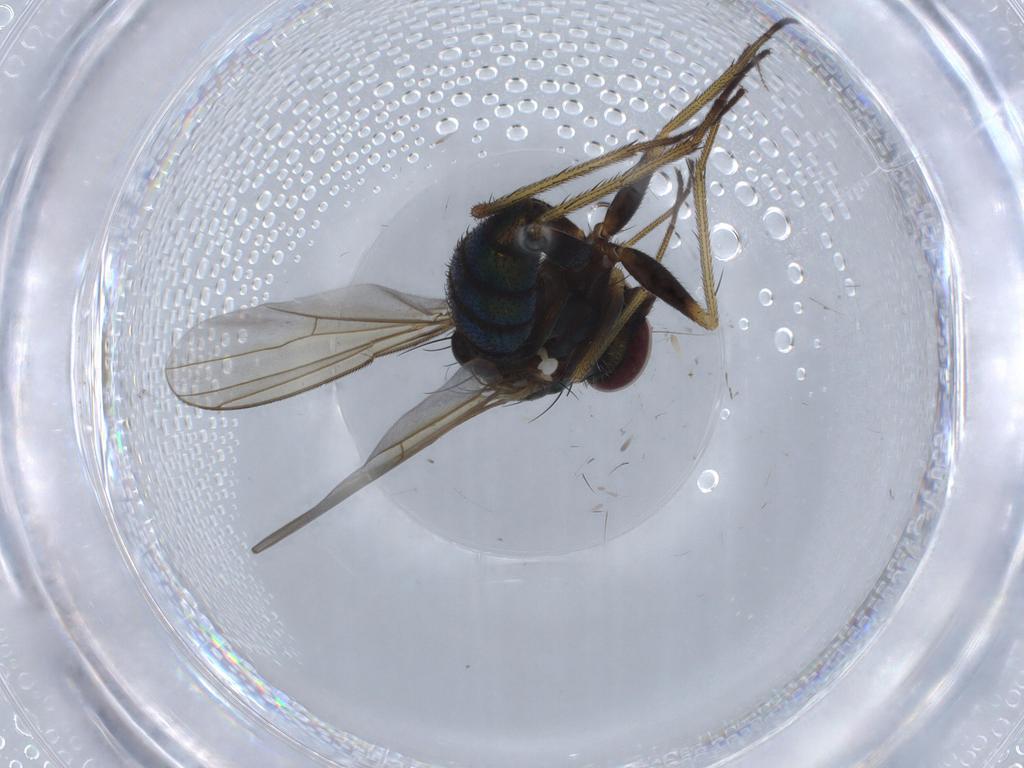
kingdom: Animalia
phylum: Arthropoda
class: Insecta
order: Diptera
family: Dolichopodidae
